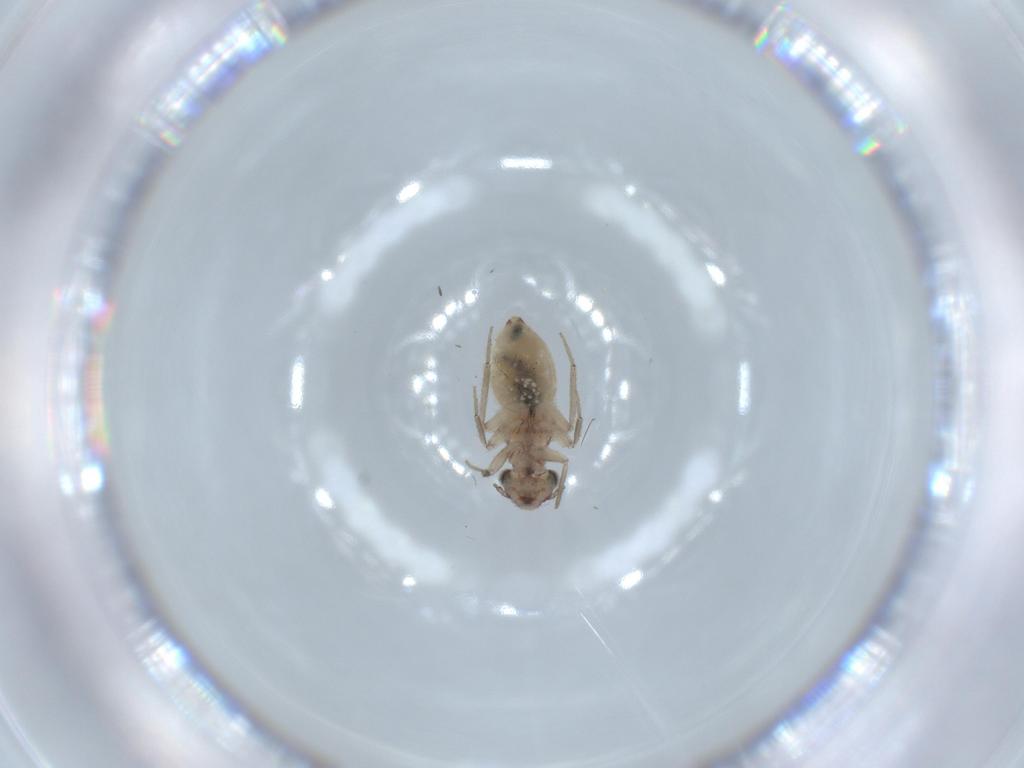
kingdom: Animalia
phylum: Arthropoda
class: Insecta
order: Psocodea
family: Lepidopsocidae
